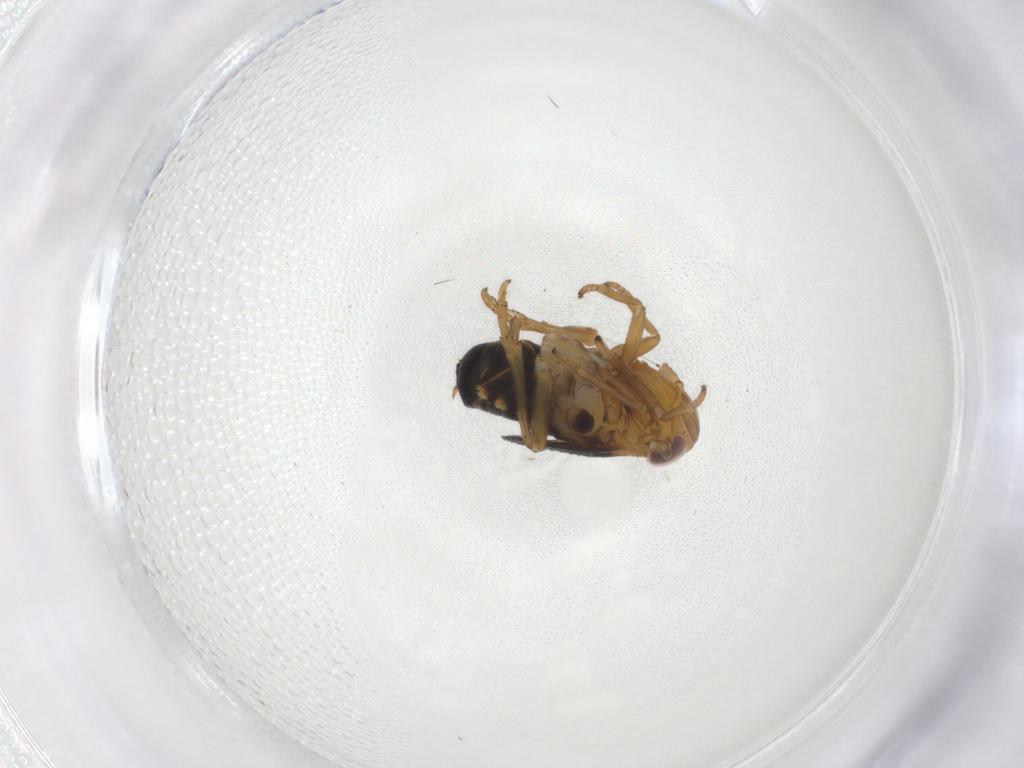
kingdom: Animalia
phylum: Arthropoda
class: Insecta
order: Hemiptera
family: Delphacidae
